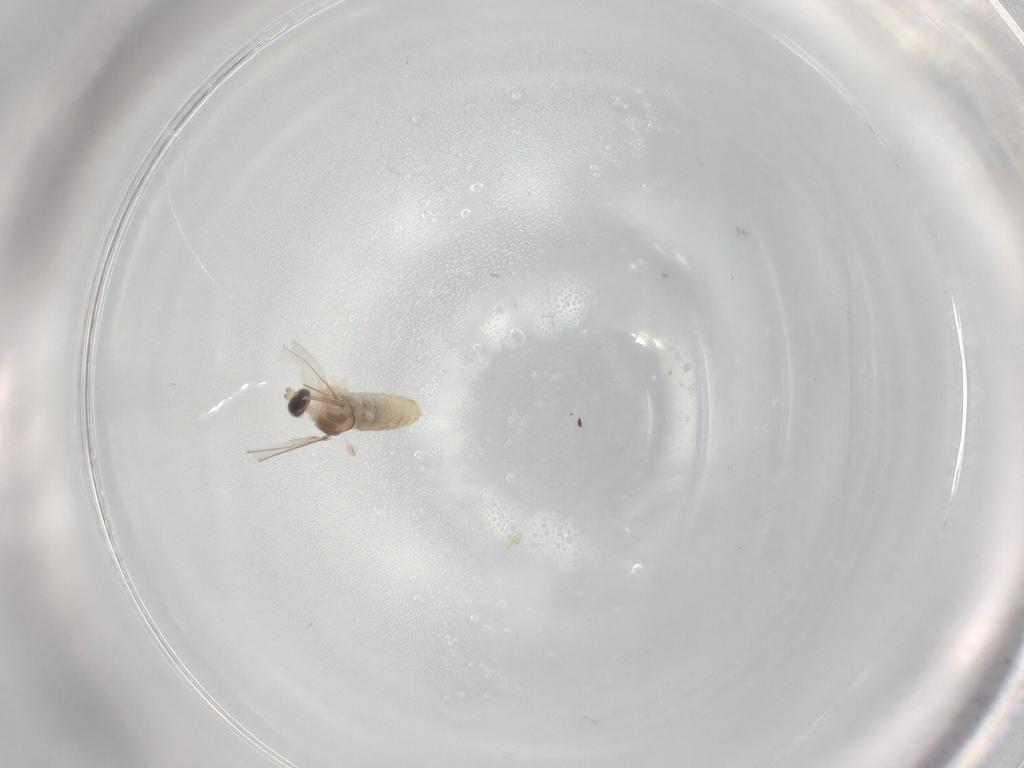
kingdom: Animalia
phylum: Arthropoda
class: Insecta
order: Diptera
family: Cecidomyiidae
